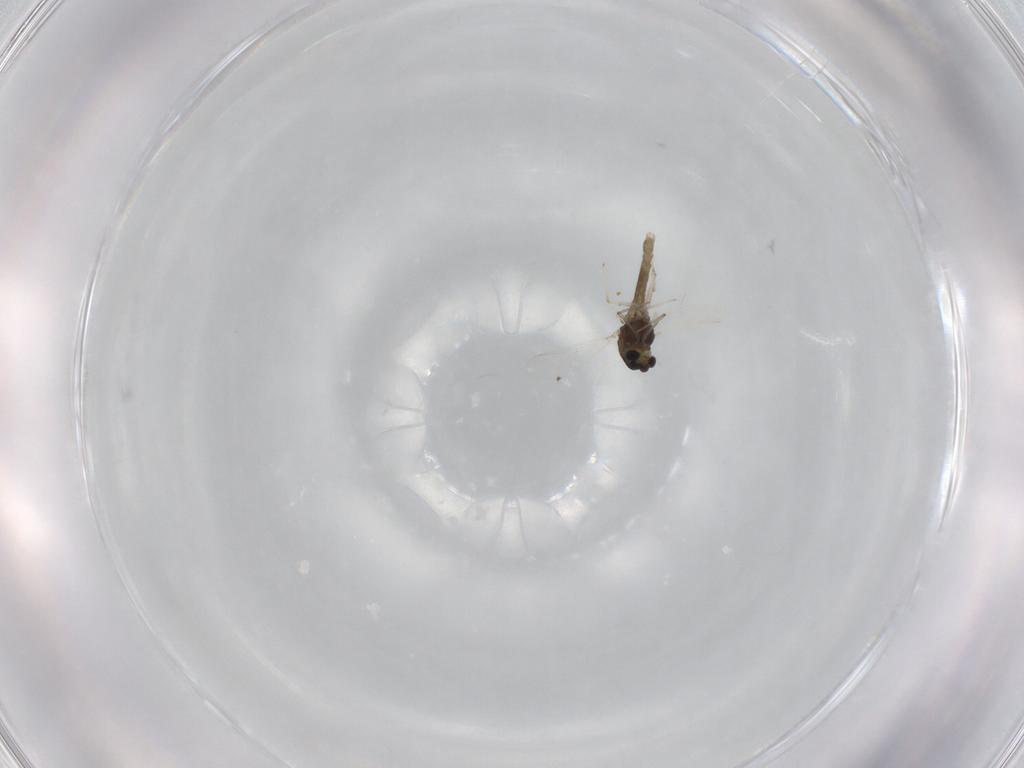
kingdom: Animalia
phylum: Arthropoda
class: Insecta
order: Diptera
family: Chironomidae
